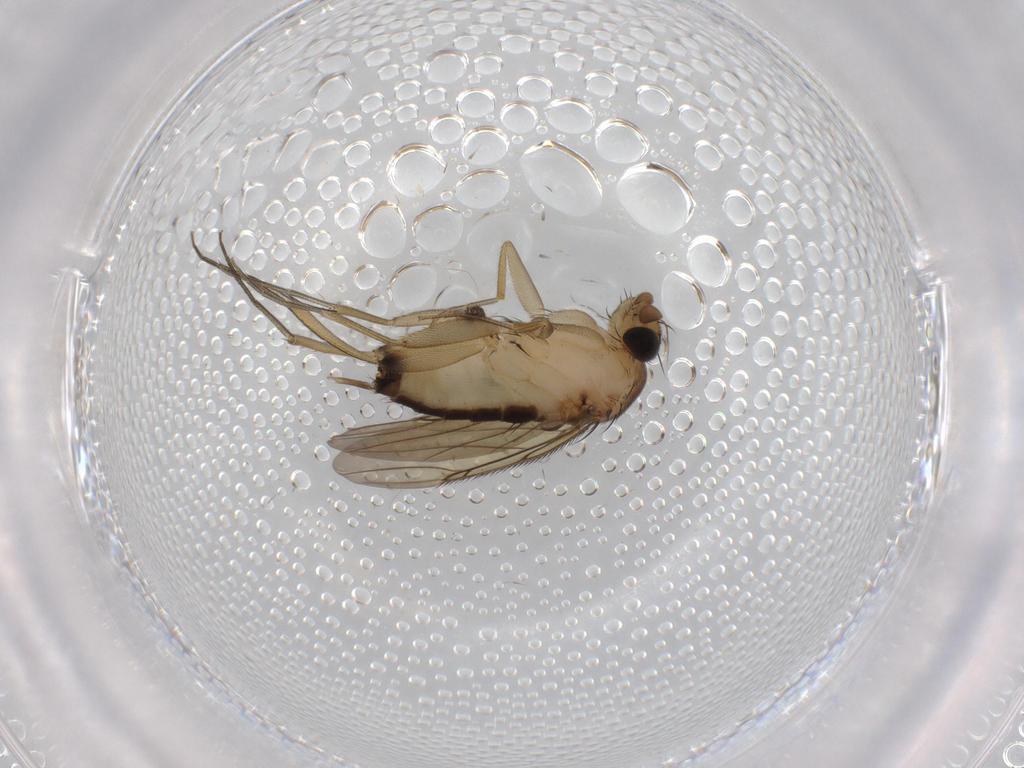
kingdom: Animalia
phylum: Arthropoda
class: Insecta
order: Diptera
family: Phoridae
